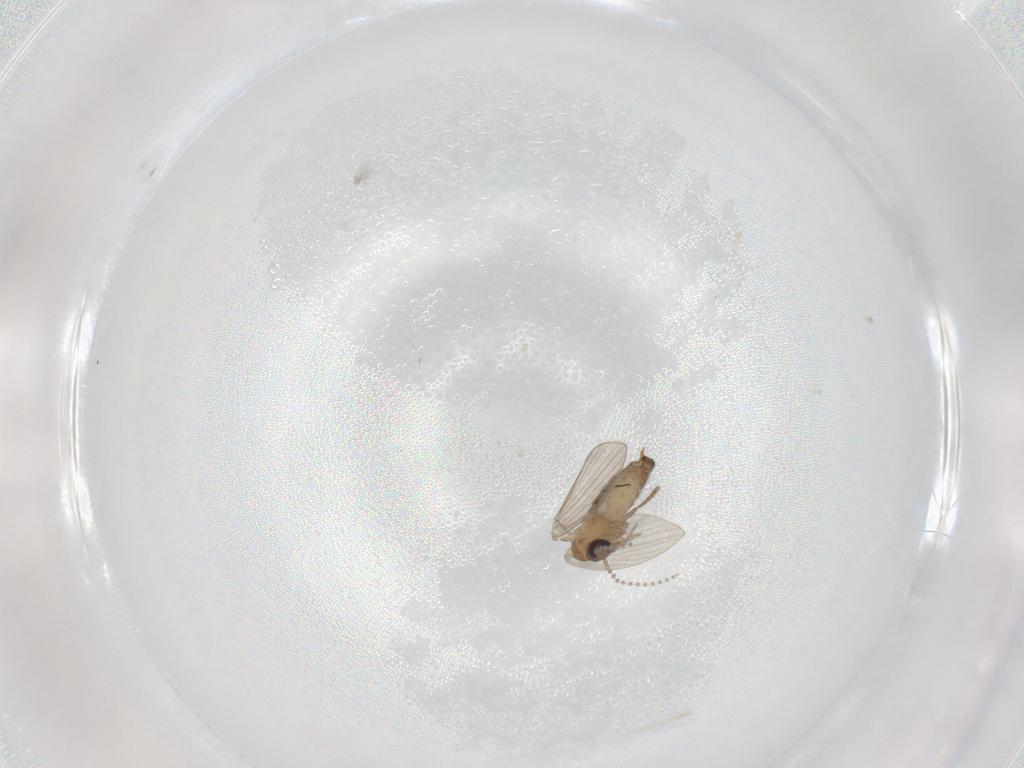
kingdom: Animalia
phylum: Arthropoda
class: Insecta
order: Diptera
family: Psychodidae
